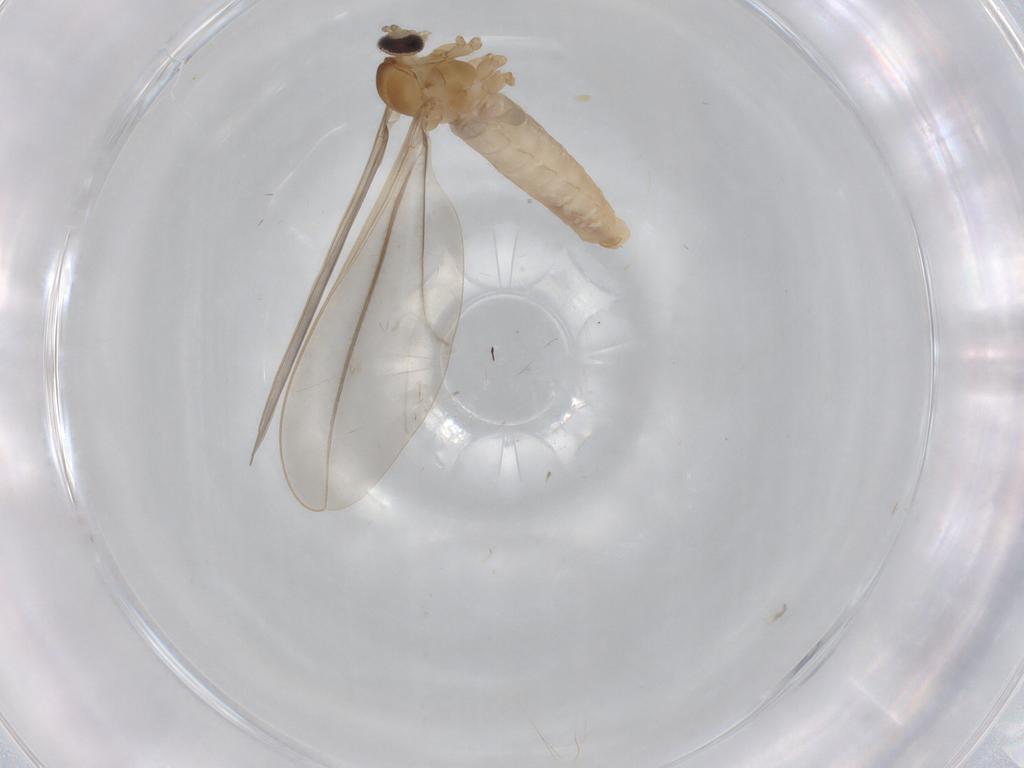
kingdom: Animalia
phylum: Arthropoda
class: Insecta
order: Diptera
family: Cecidomyiidae
